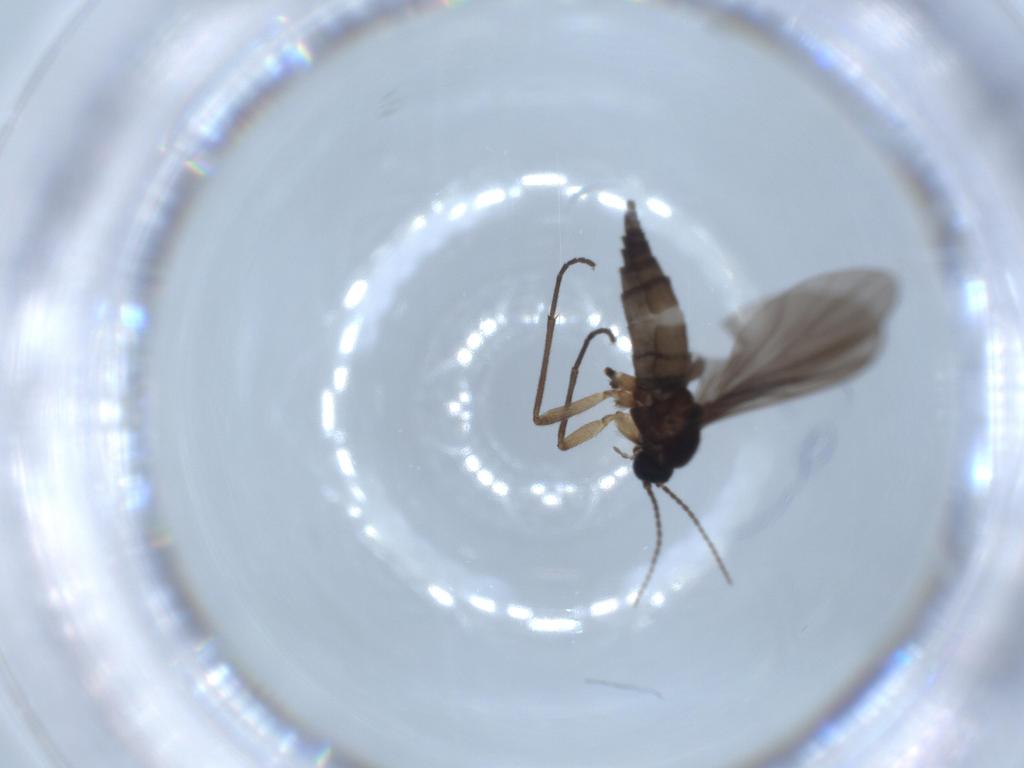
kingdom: Animalia
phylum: Arthropoda
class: Insecta
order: Diptera
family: Sciaridae
